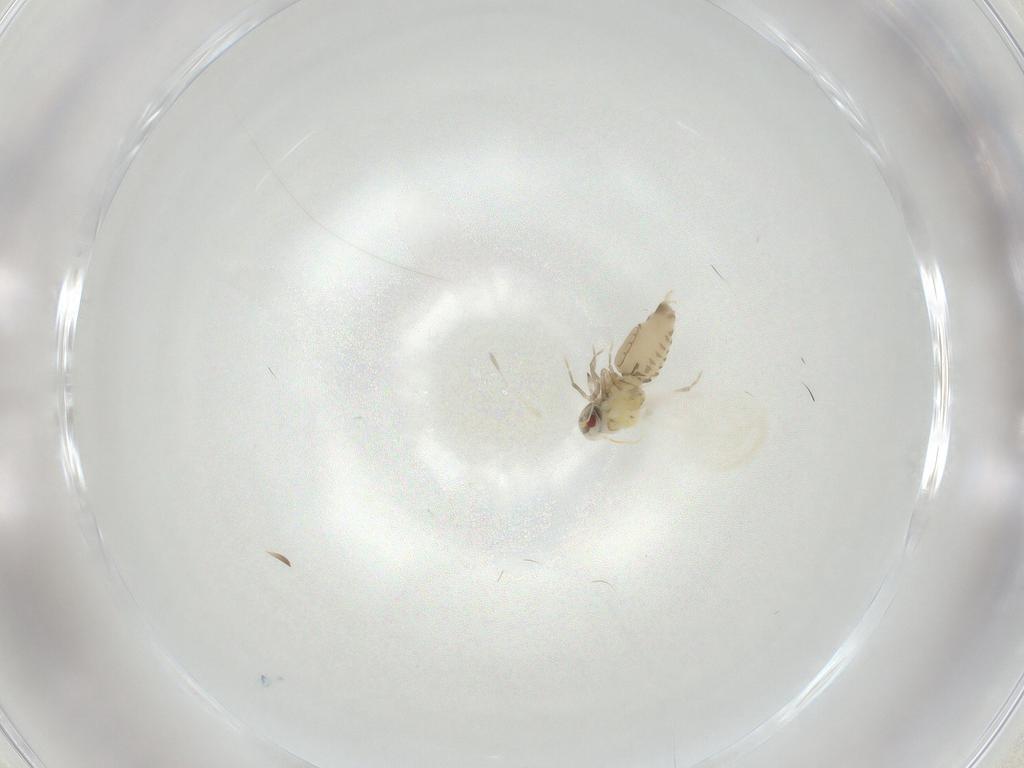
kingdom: Animalia
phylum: Arthropoda
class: Insecta
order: Hemiptera
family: Aleyrodidae
